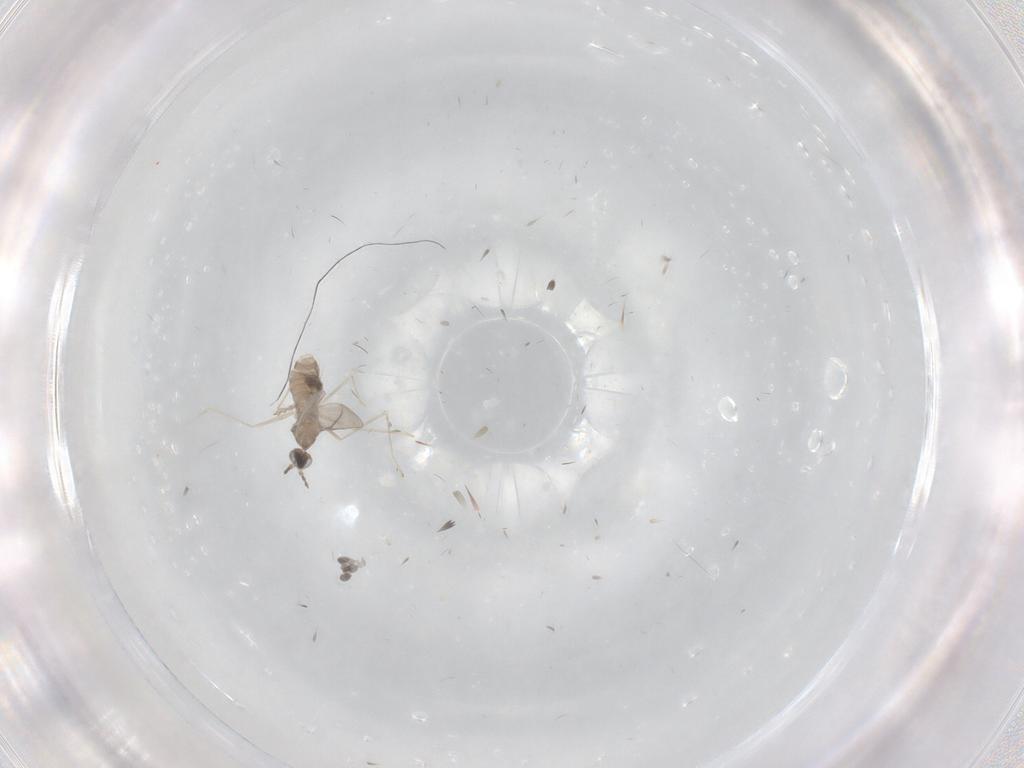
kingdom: Animalia
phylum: Arthropoda
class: Insecta
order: Diptera
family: Cecidomyiidae
